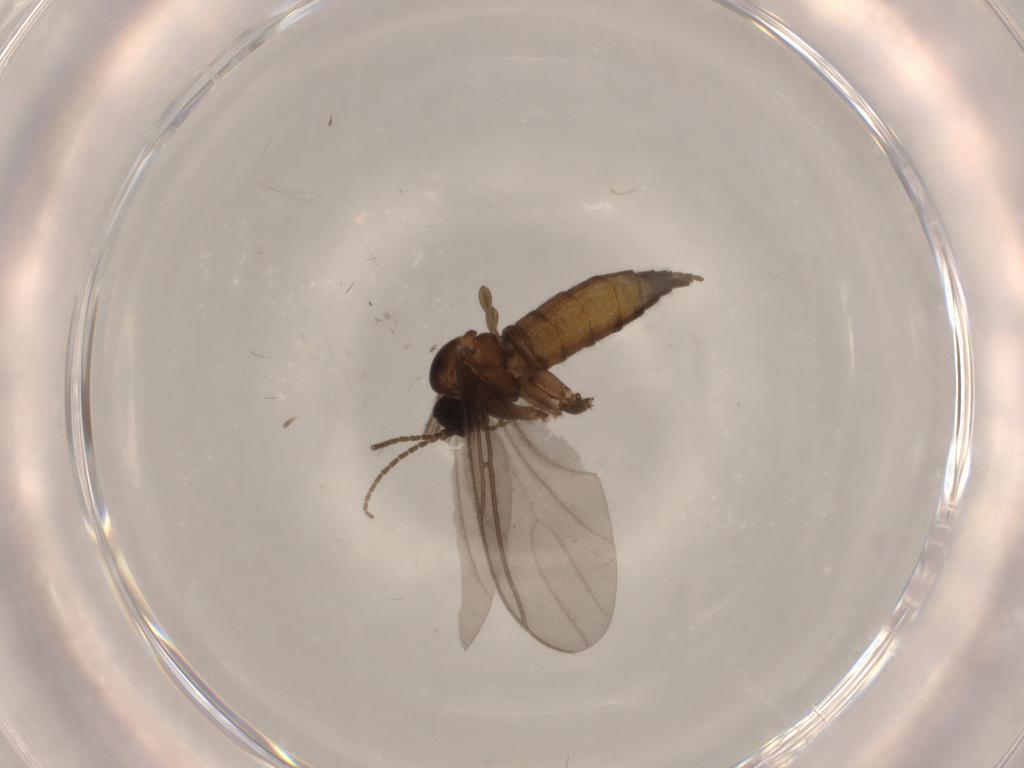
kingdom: Animalia
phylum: Arthropoda
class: Insecta
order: Diptera
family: Sciaridae
